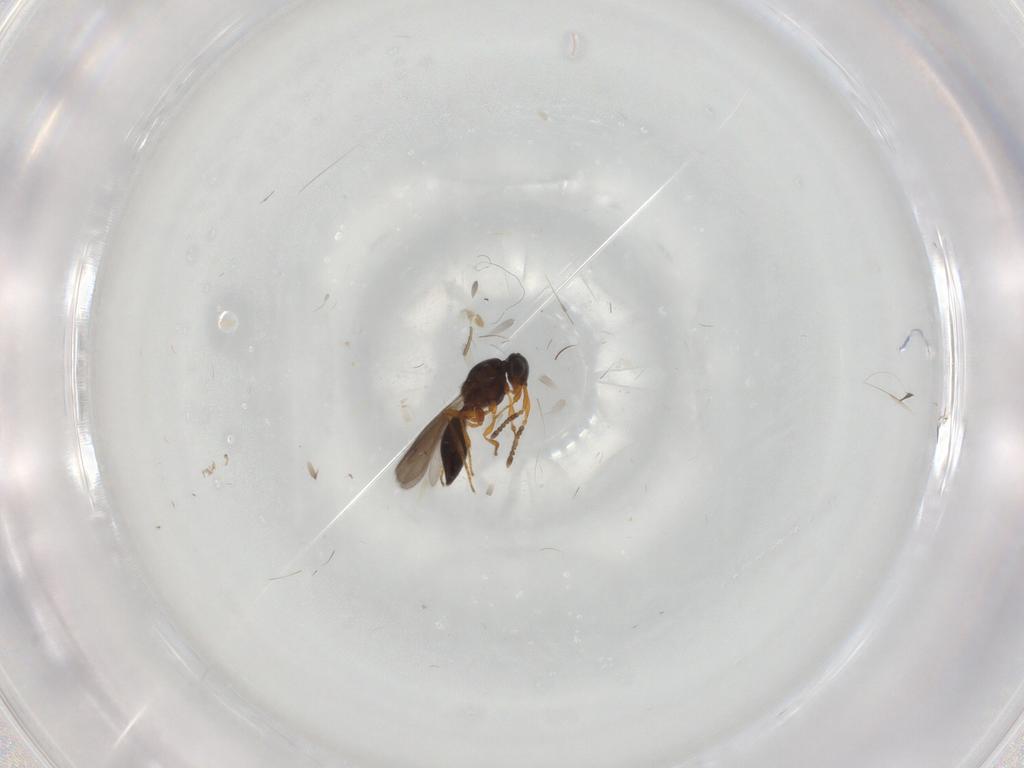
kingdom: Animalia
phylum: Arthropoda
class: Insecta
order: Hymenoptera
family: Platygastridae
